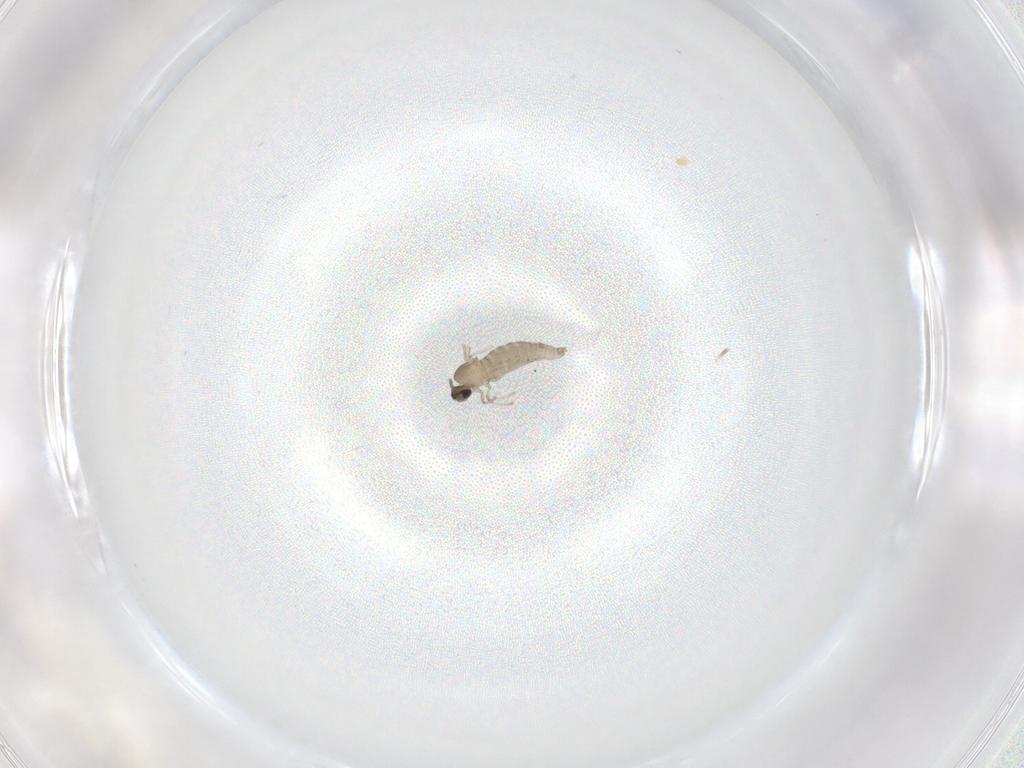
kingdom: Animalia
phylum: Arthropoda
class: Insecta
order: Diptera
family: Cecidomyiidae
